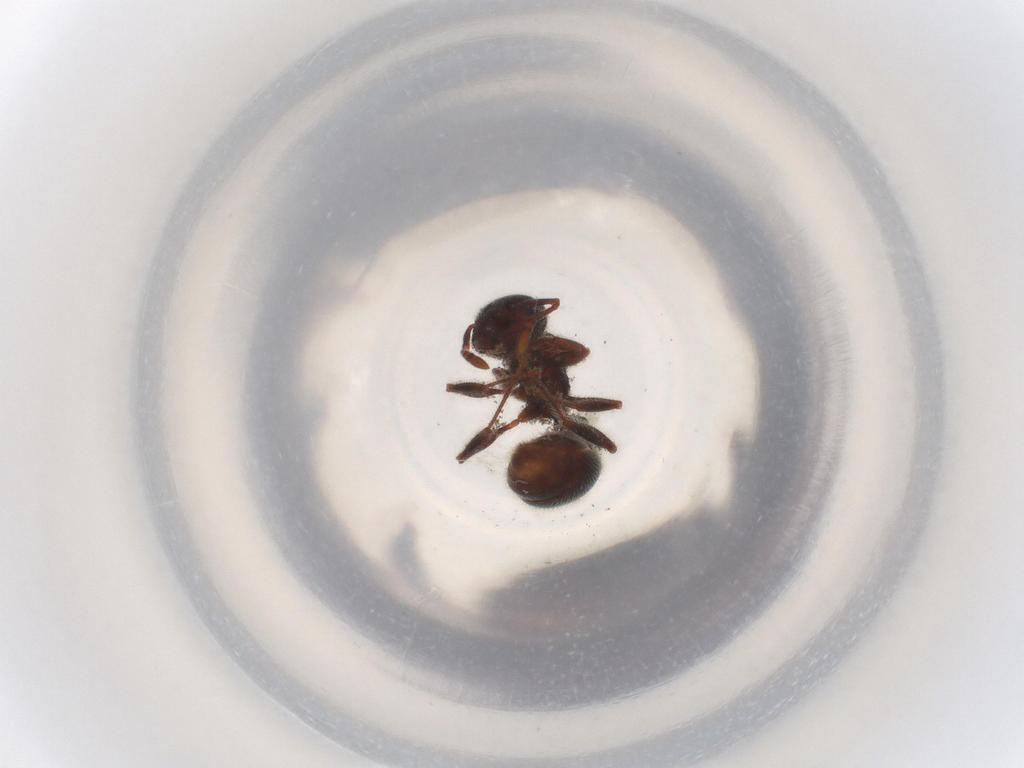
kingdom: Animalia
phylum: Arthropoda
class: Insecta
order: Hymenoptera
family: Formicidae
